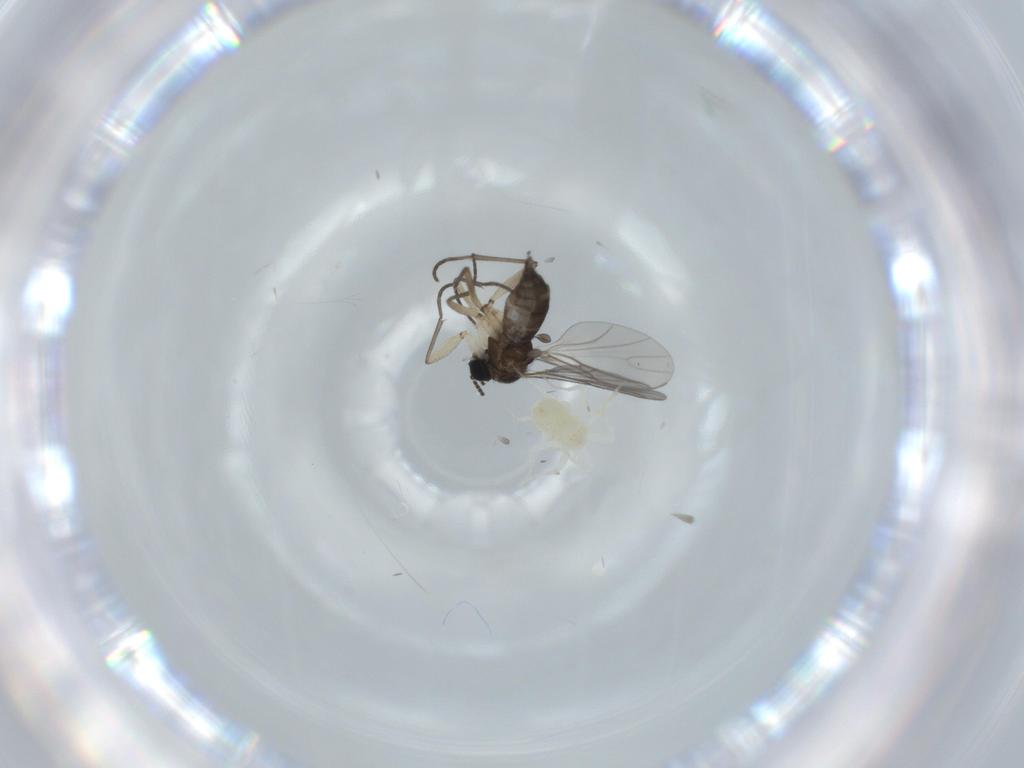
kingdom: Animalia
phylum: Arthropoda
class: Insecta
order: Diptera
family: Sciaridae
